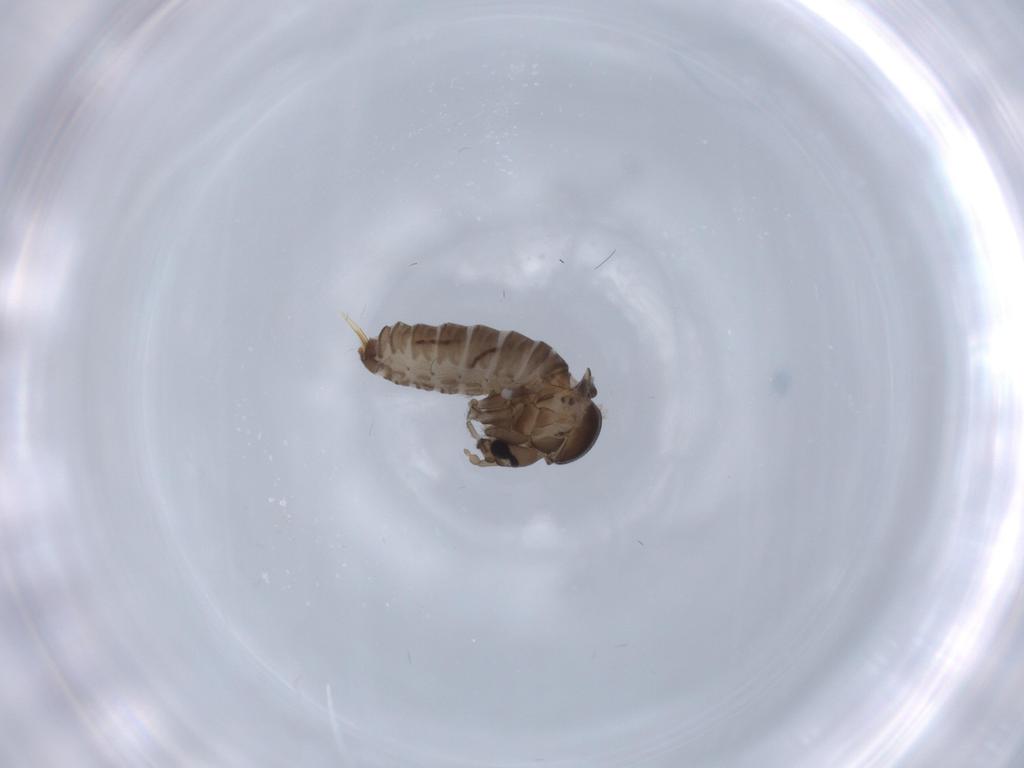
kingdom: Animalia
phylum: Arthropoda
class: Insecta
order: Diptera
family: Psychodidae
